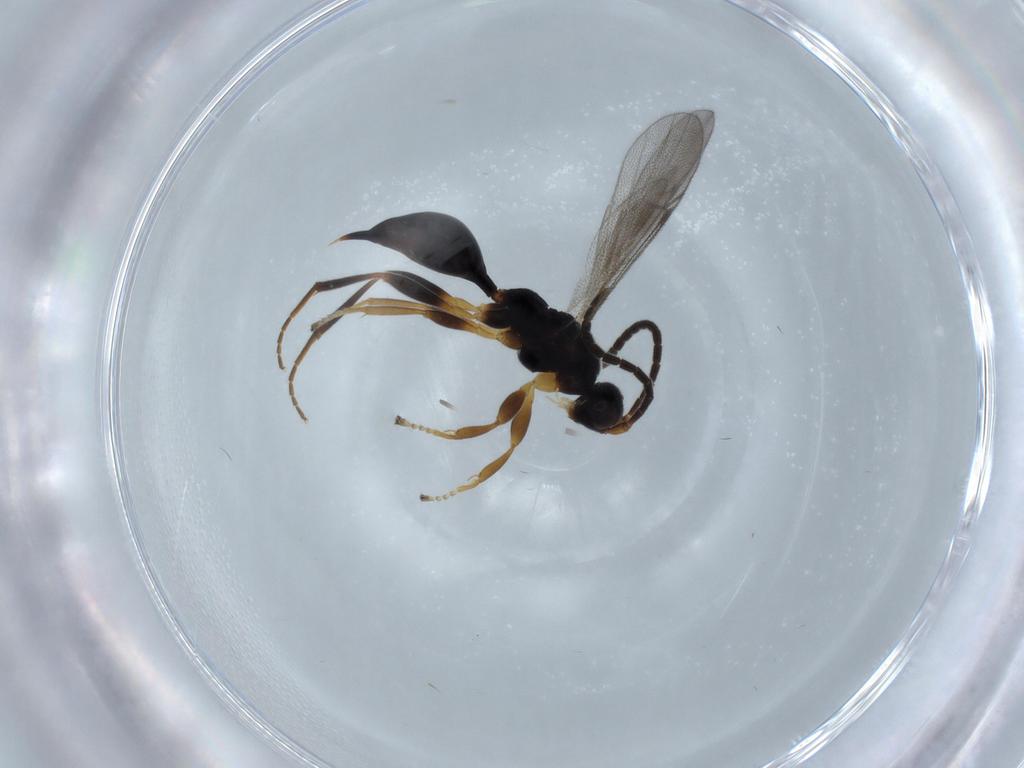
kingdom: Animalia
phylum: Arthropoda
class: Insecta
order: Hymenoptera
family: Proctotrupidae
